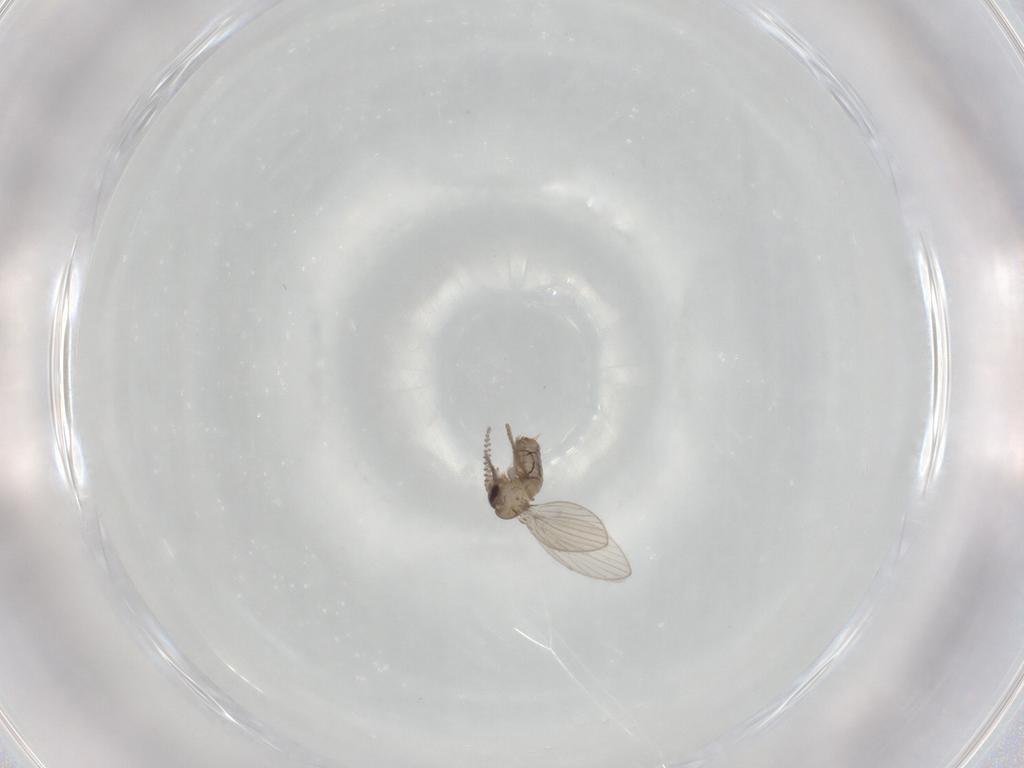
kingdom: Animalia
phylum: Arthropoda
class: Insecta
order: Diptera
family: Psychodidae
